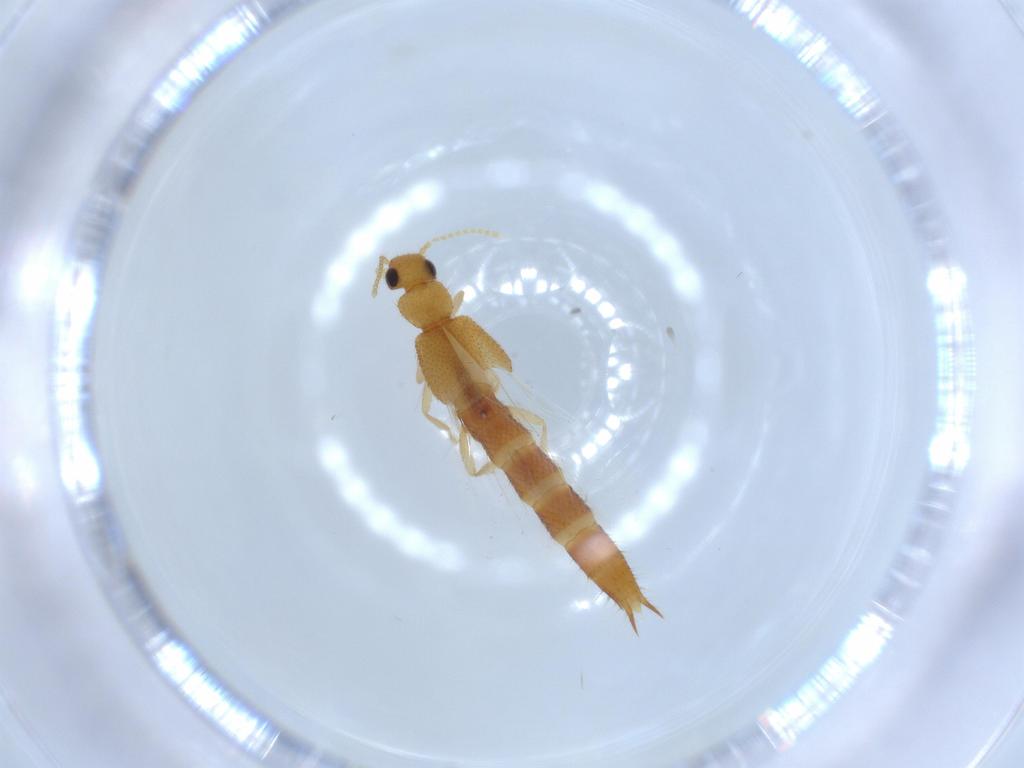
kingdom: Animalia
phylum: Arthropoda
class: Insecta
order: Coleoptera
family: Staphylinidae
